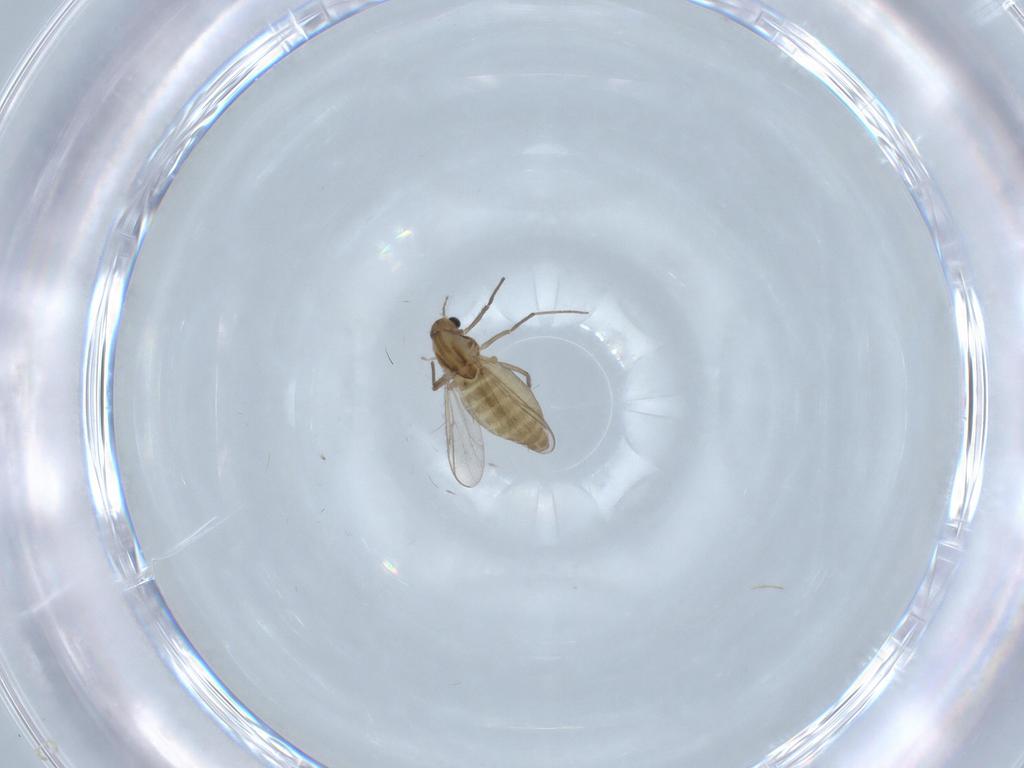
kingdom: Animalia
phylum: Arthropoda
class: Insecta
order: Diptera
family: Chironomidae
